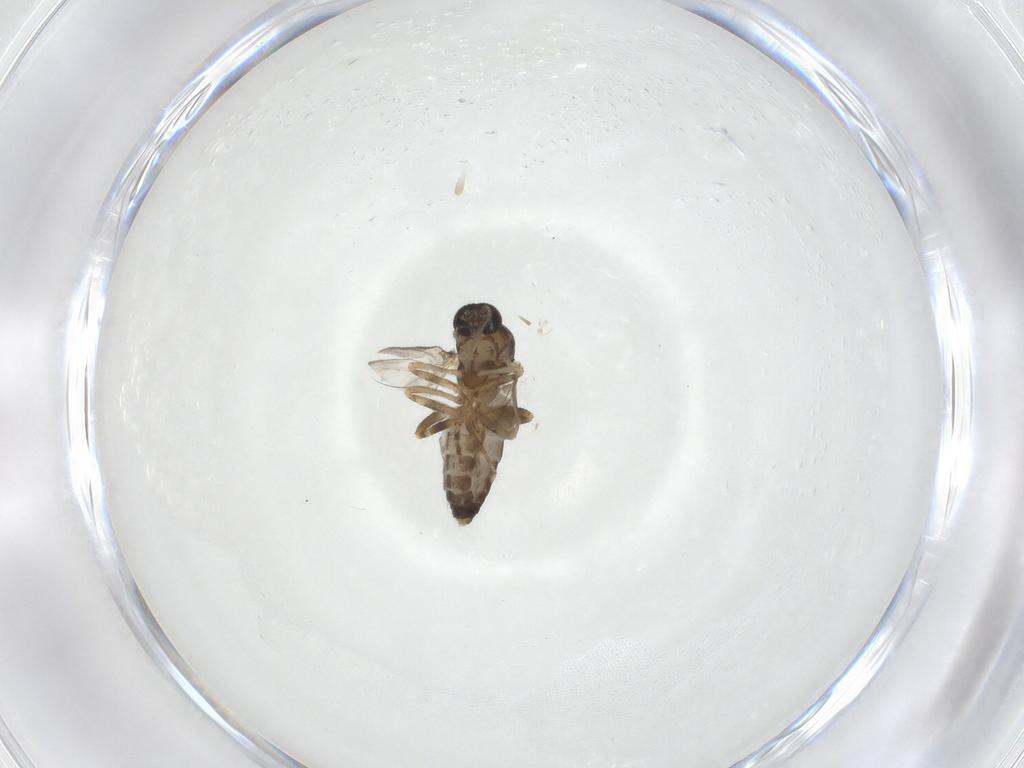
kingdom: Animalia
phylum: Arthropoda
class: Insecta
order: Diptera
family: Ceratopogonidae
